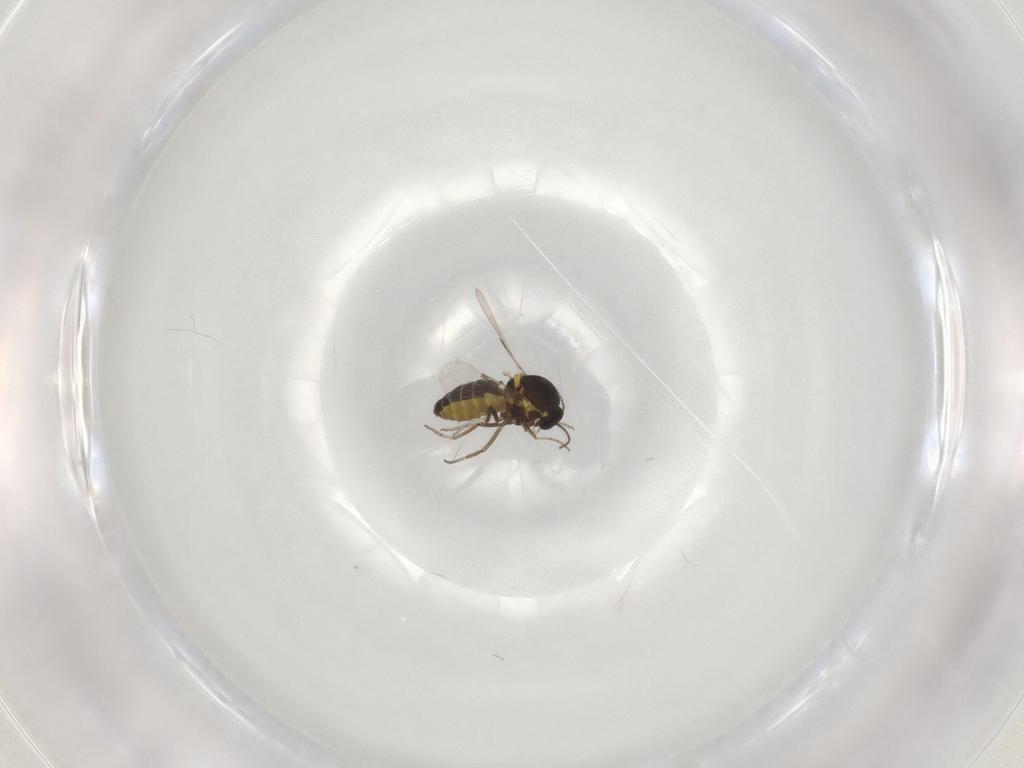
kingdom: Animalia
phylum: Arthropoda
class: Insecta
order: Diptera
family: Ceratopogonidae
